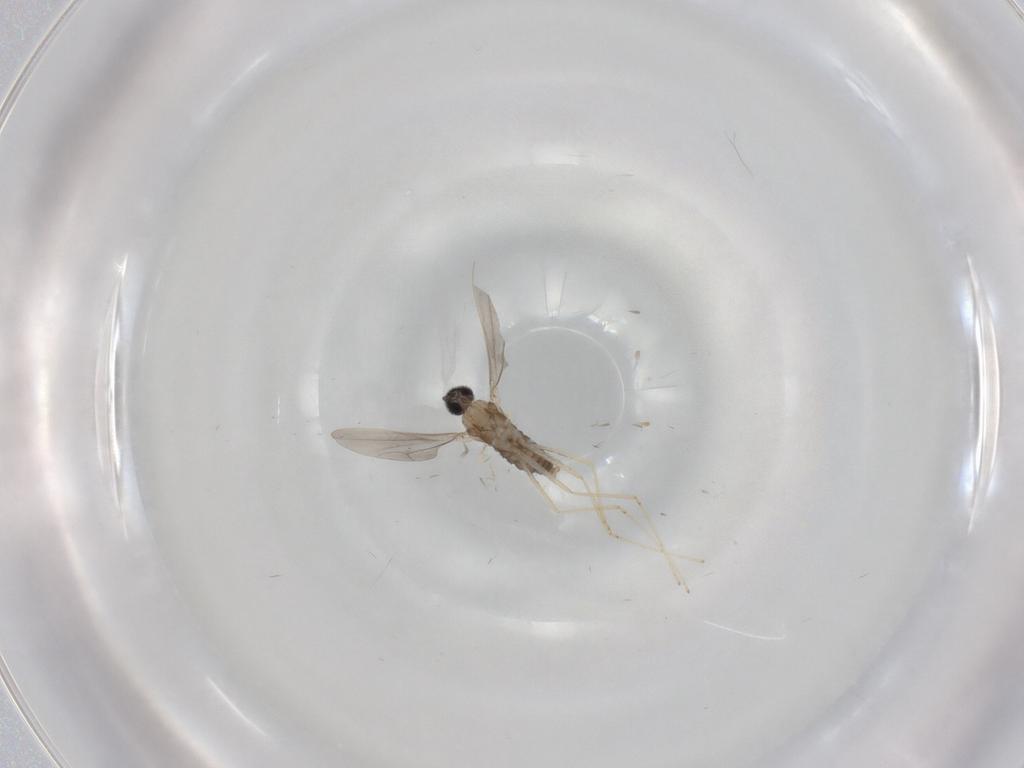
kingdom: Animalia
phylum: Arthropoda
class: Insecta
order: Diptera
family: Cecidomyiidae
